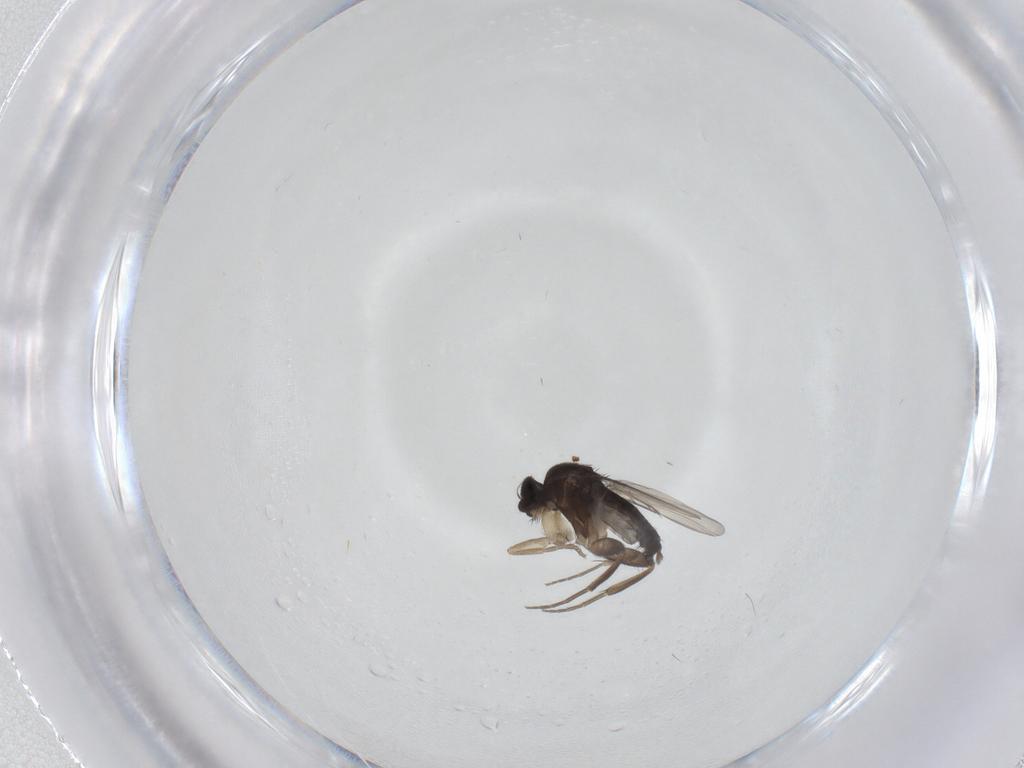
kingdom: Animalia
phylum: Arthropoda
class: Insecta
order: Diptera
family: Phoridae
